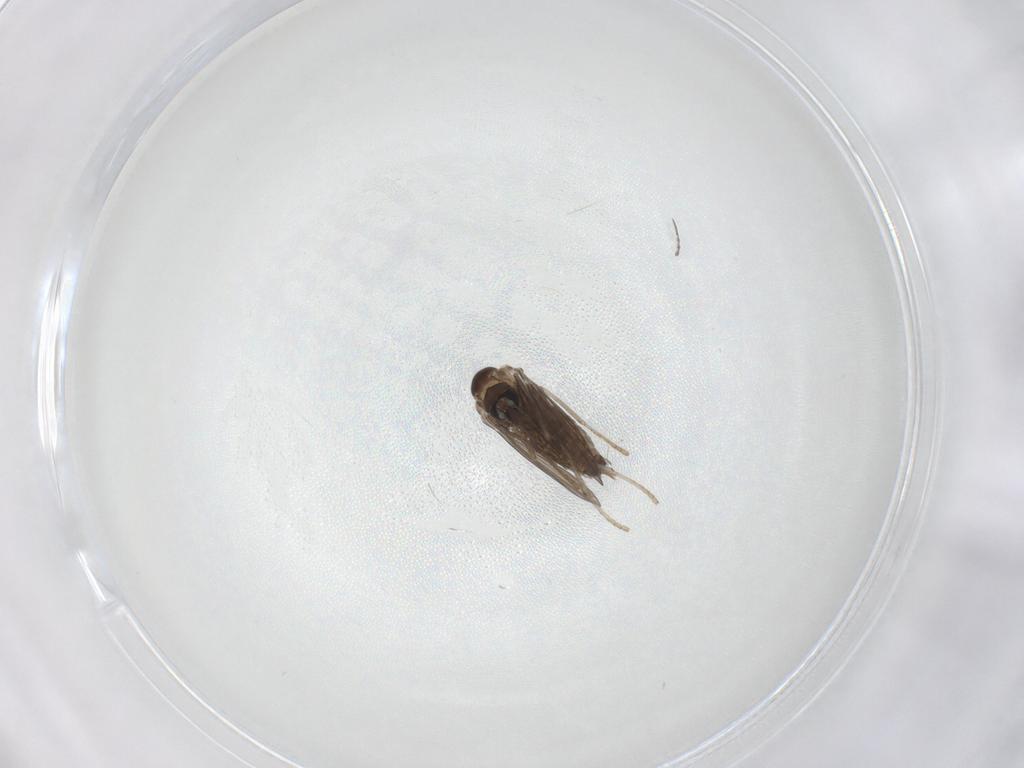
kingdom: Animalia
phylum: Arthropoda
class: Insecta
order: Diptera
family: Psychodidae
